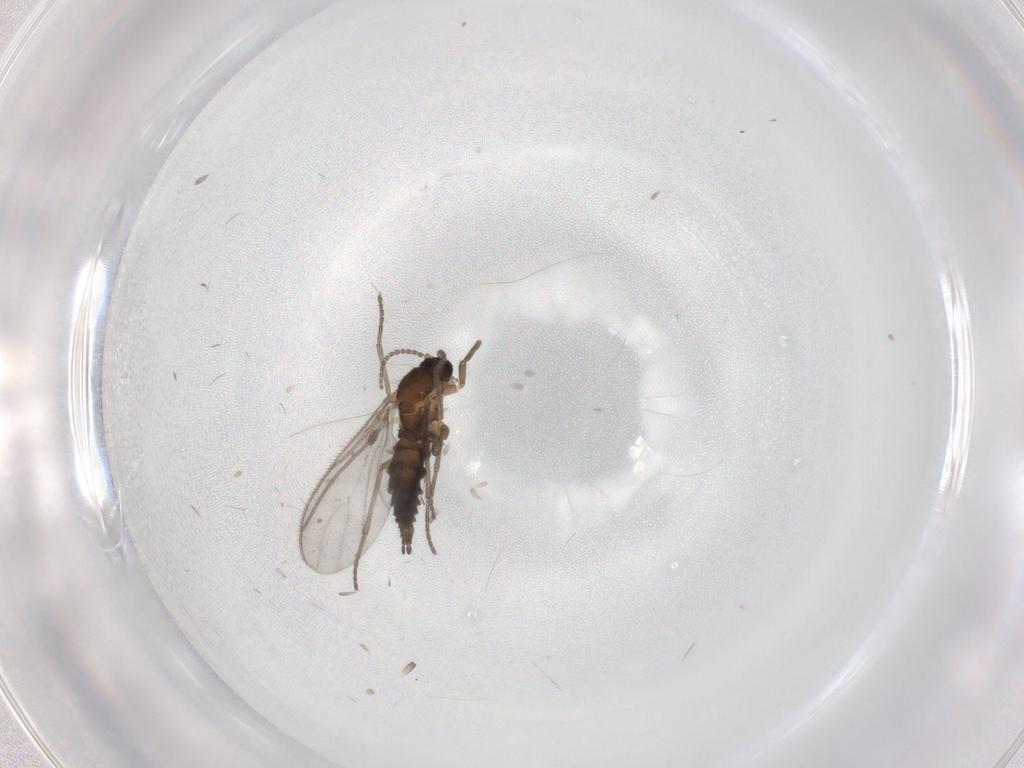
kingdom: Animalia
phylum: Arthropoda
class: Insecta
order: Diptera
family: Sciaridae
